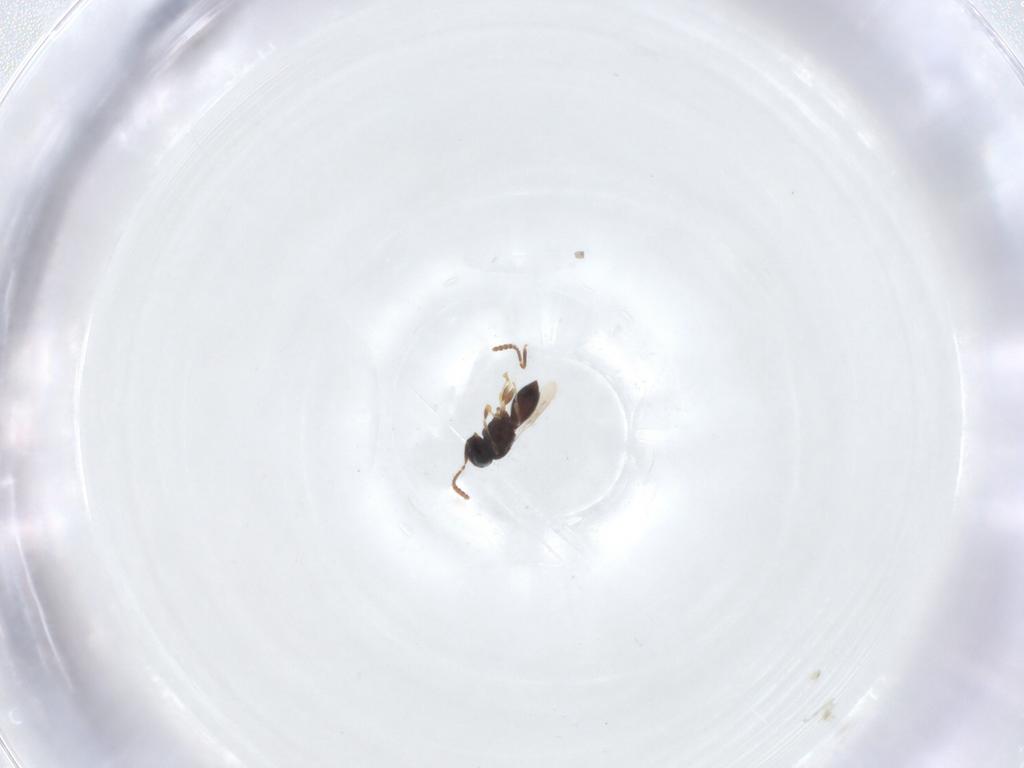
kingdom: Animalia
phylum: Arthropoda
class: Insecta
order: Hymenoptera
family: Scelionidae
